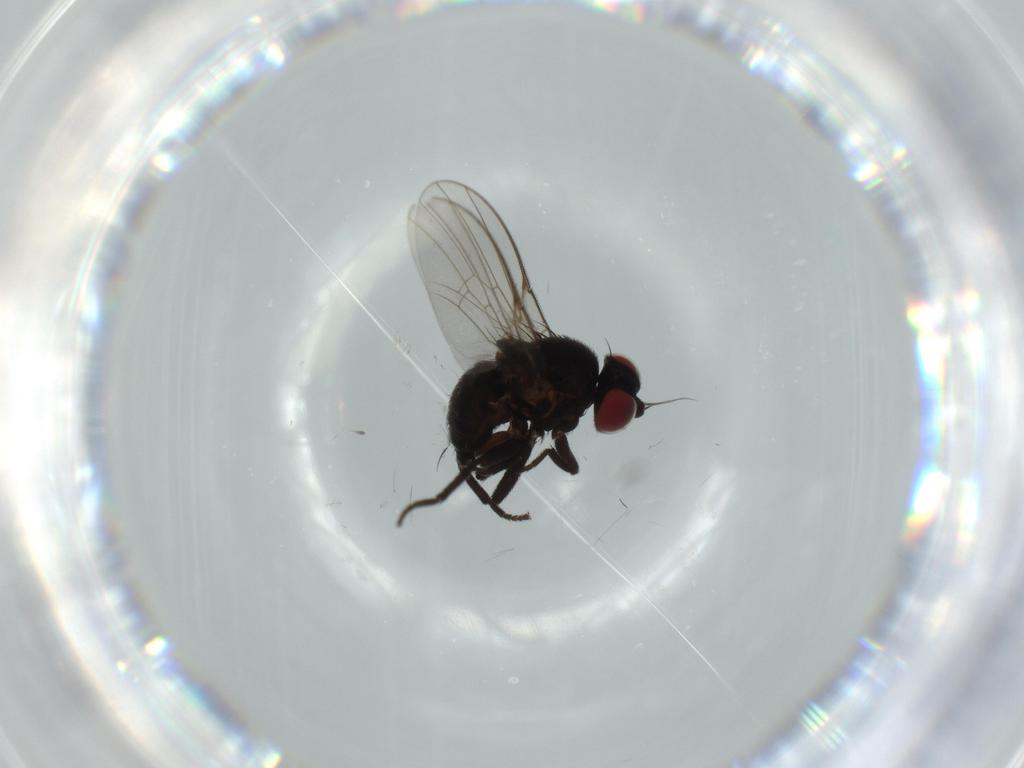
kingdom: Animalia
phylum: Arthropoda
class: Insecta
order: Diptera
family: Agromyzidae
